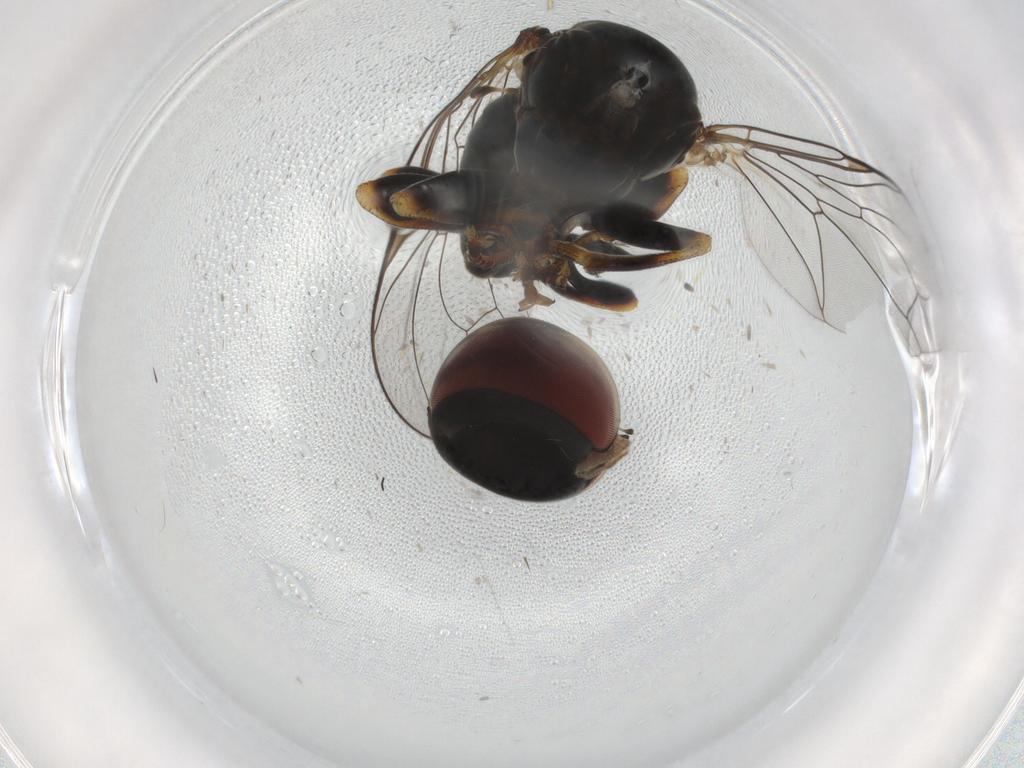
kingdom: Animalia
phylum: Arthropoda
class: Insecta
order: Diptera
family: Pipunculidae
